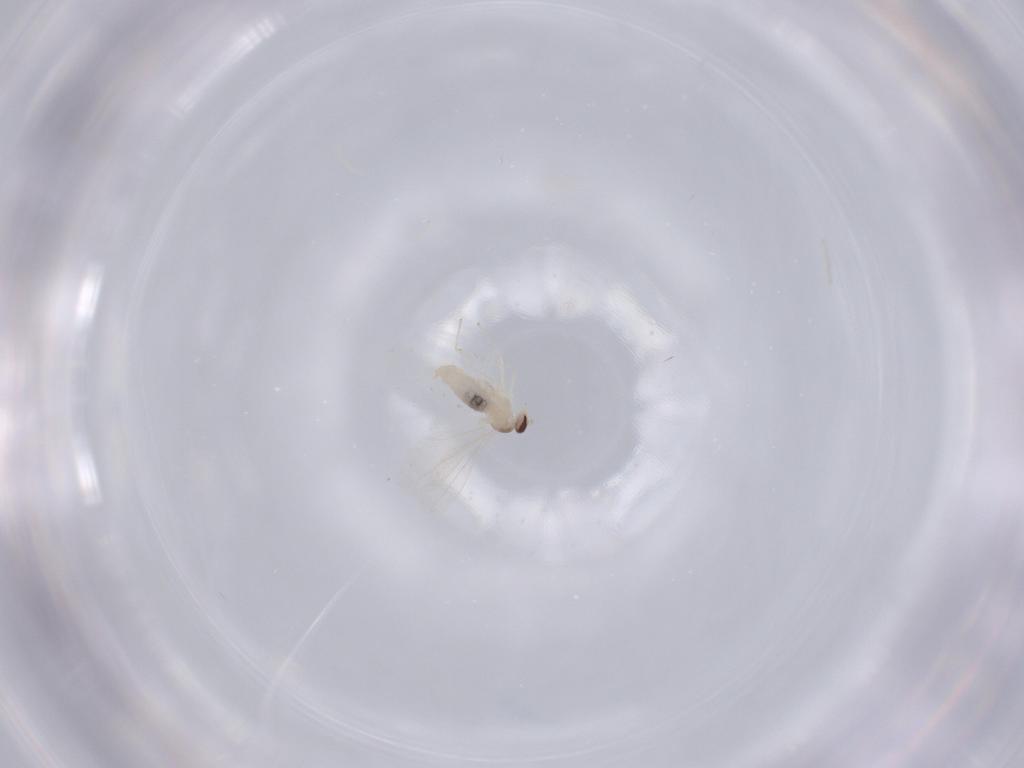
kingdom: Animalia
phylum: Arthropoda
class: Insecta
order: Diptera
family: Cecidomyiidae
